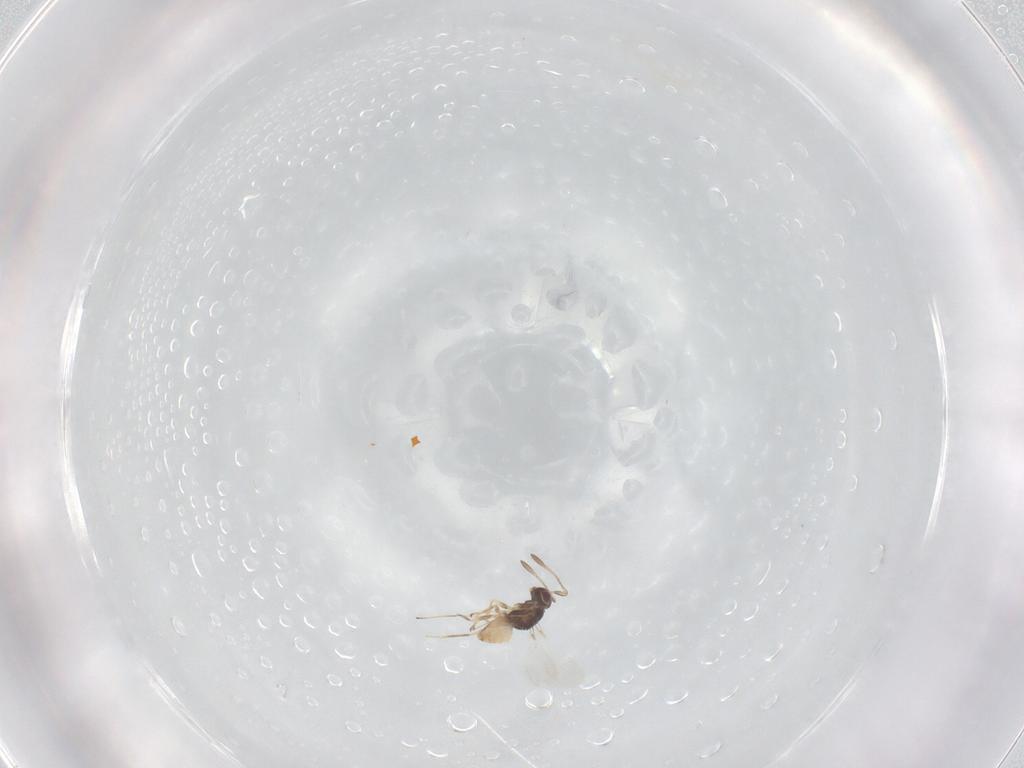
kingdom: Animalia
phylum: Arthropoda
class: Insecta
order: Hymenoptera
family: Mymaridae
